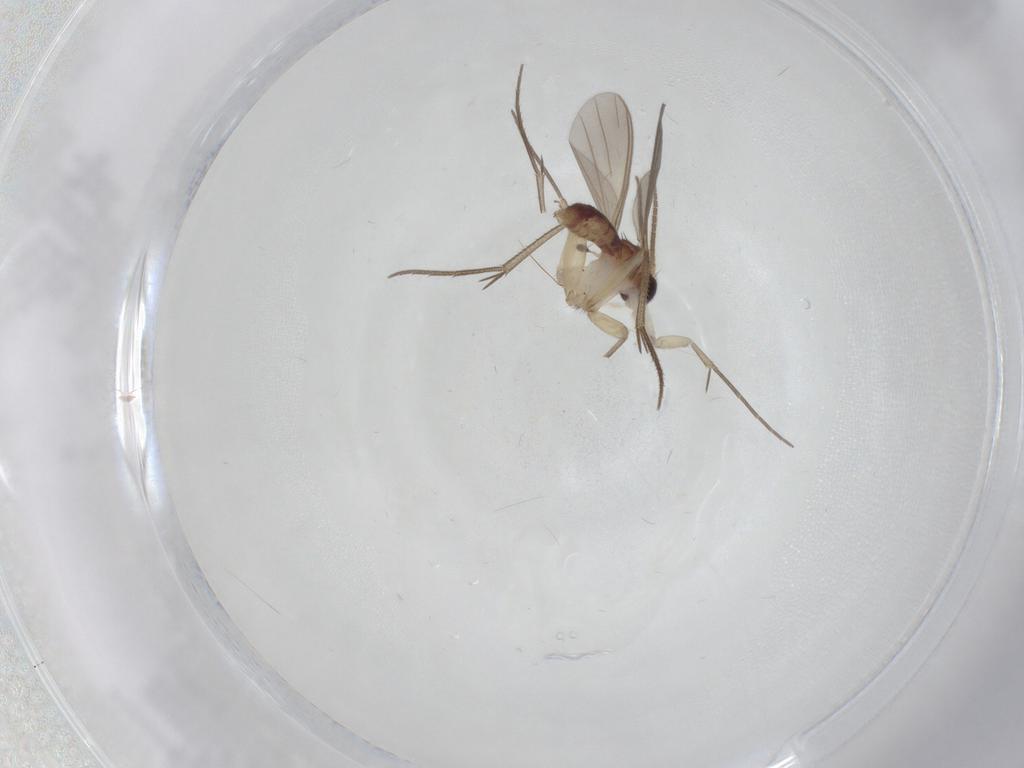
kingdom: Animalia
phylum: Arthropoda
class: Insecta
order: Diptera
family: Mycetophilidae
